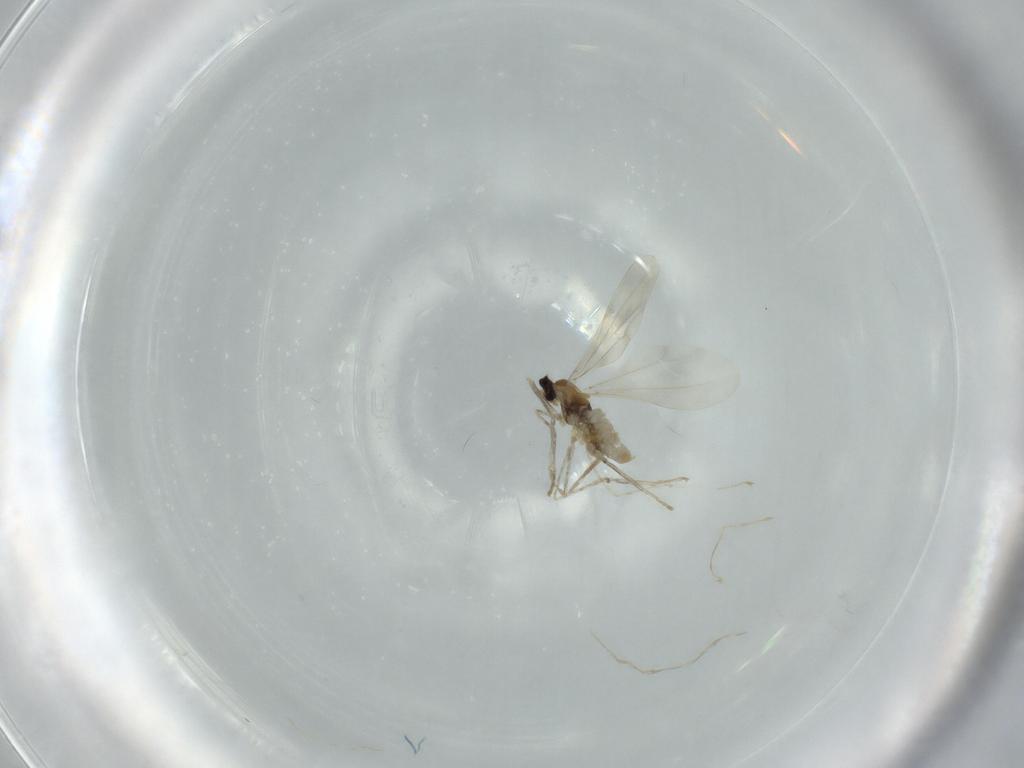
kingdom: Animalia
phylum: Arthropoda
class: Insecta
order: Diptera
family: Cecidomyiidae
